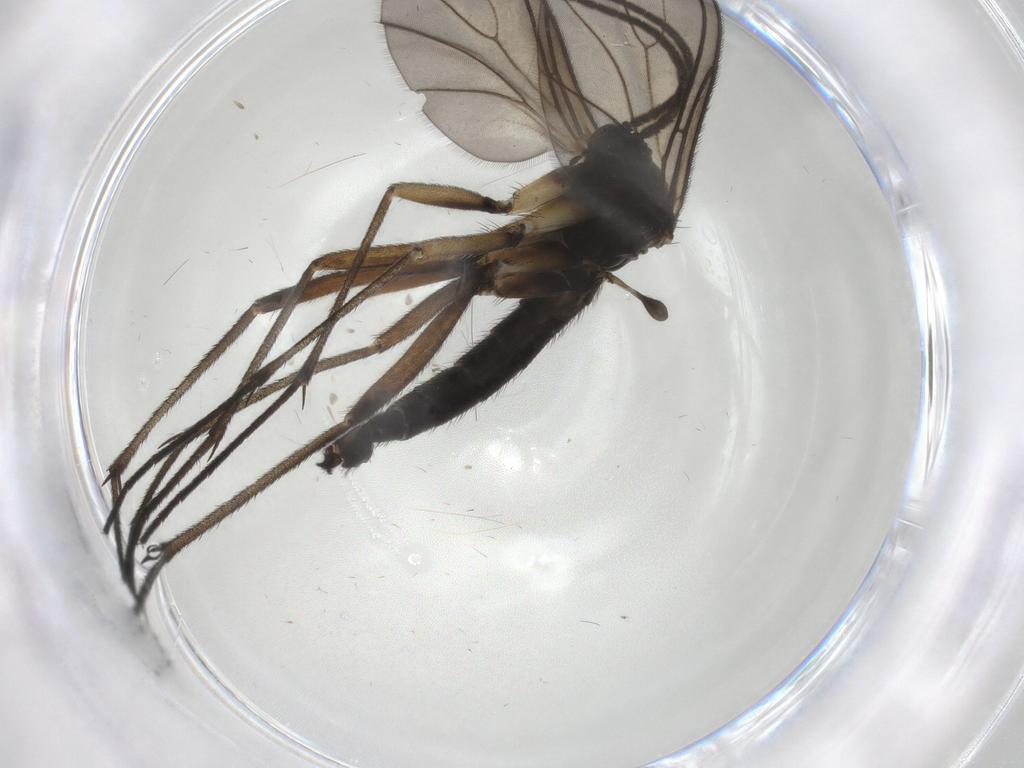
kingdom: Animalia
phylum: Arthropoda
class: Insecta
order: Diptera
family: Sciaridae
